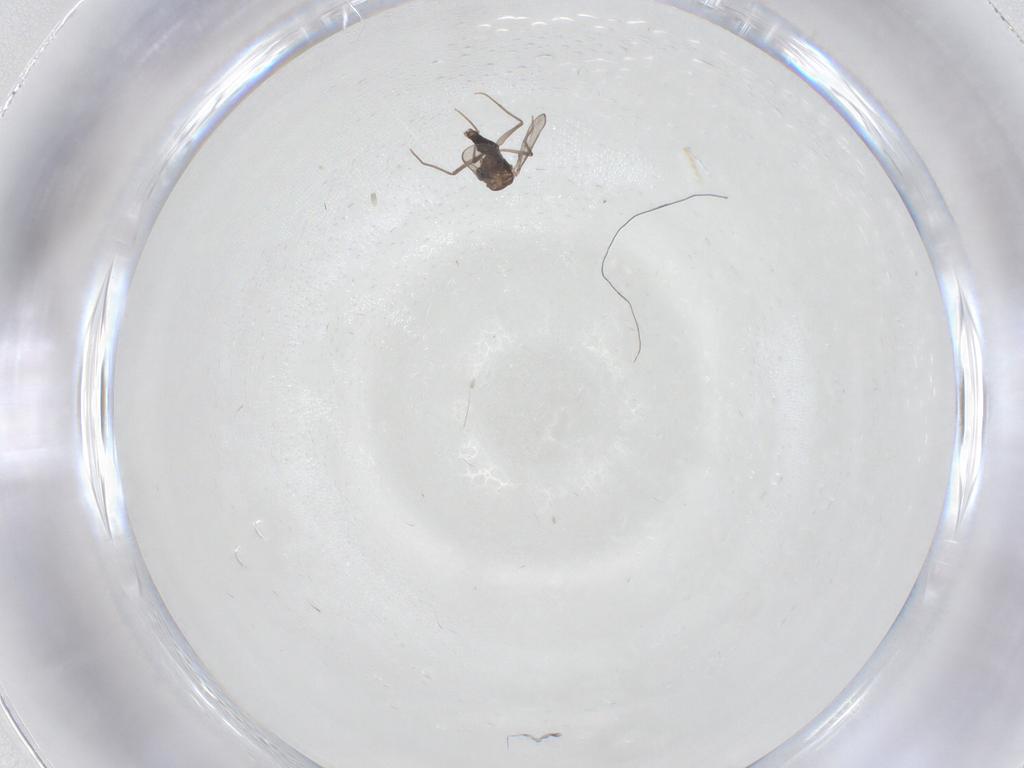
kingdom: Animalia
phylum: Arthropoda
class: Insecta
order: Diptera
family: Chironomidae
